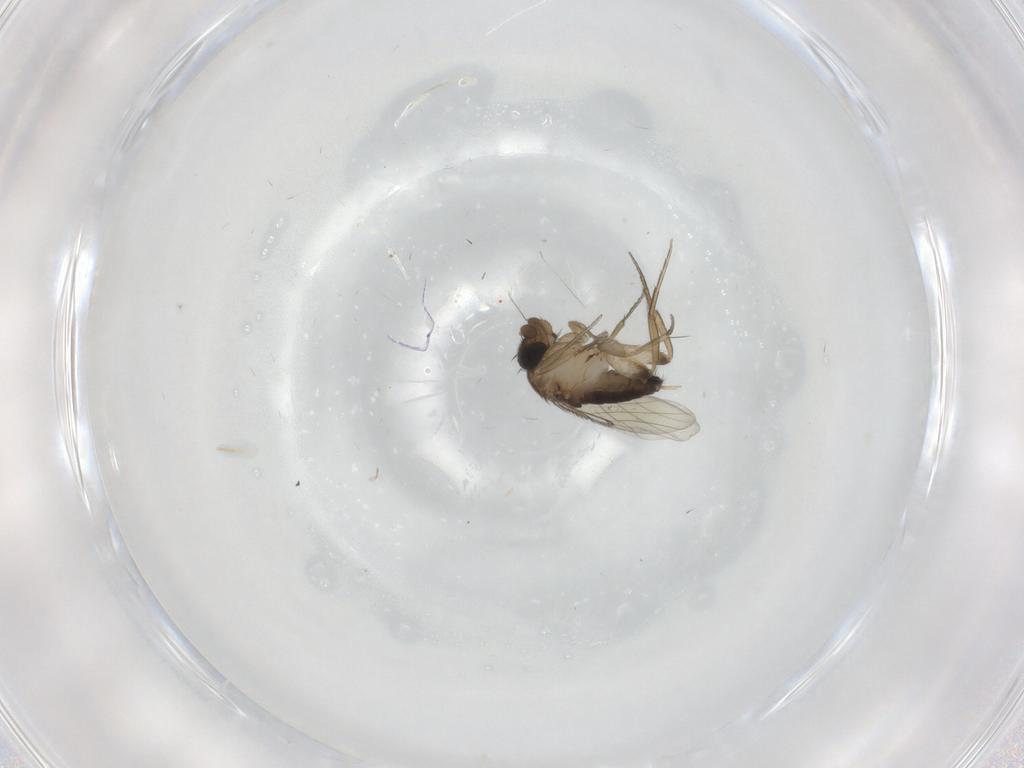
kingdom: Animalia
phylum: Arthropoda
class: Insecta
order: Diptera
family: Phoridae
